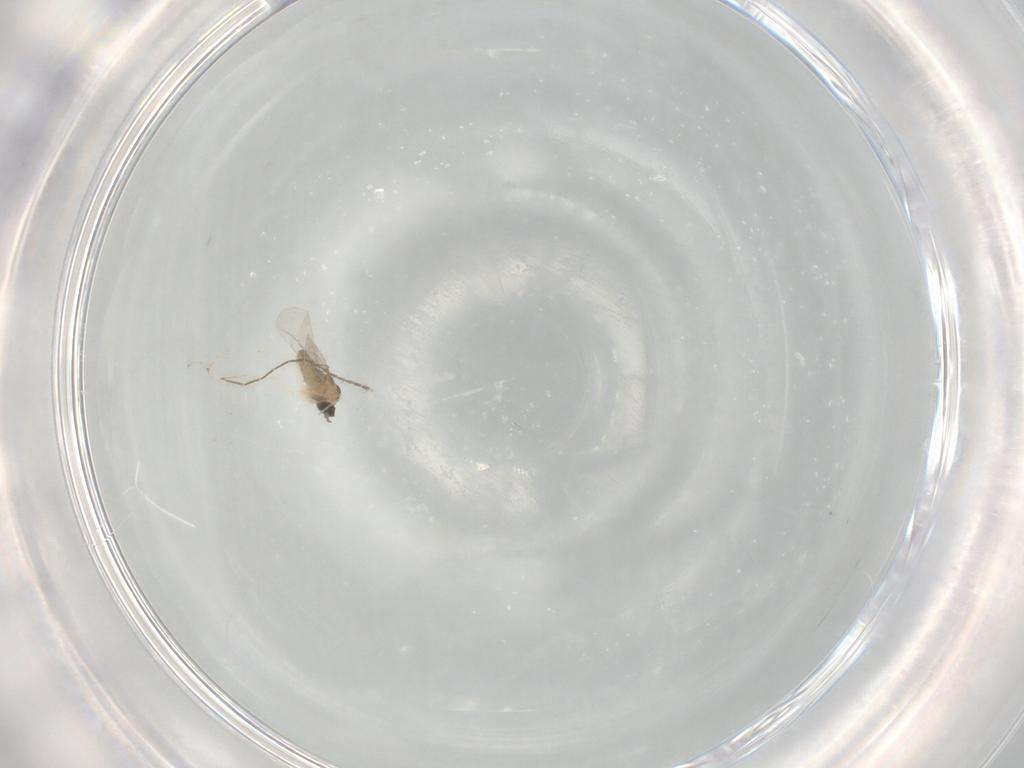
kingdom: Animalia
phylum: Arthropoda
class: Insecta
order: Diptera
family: Cecidomyiidae
